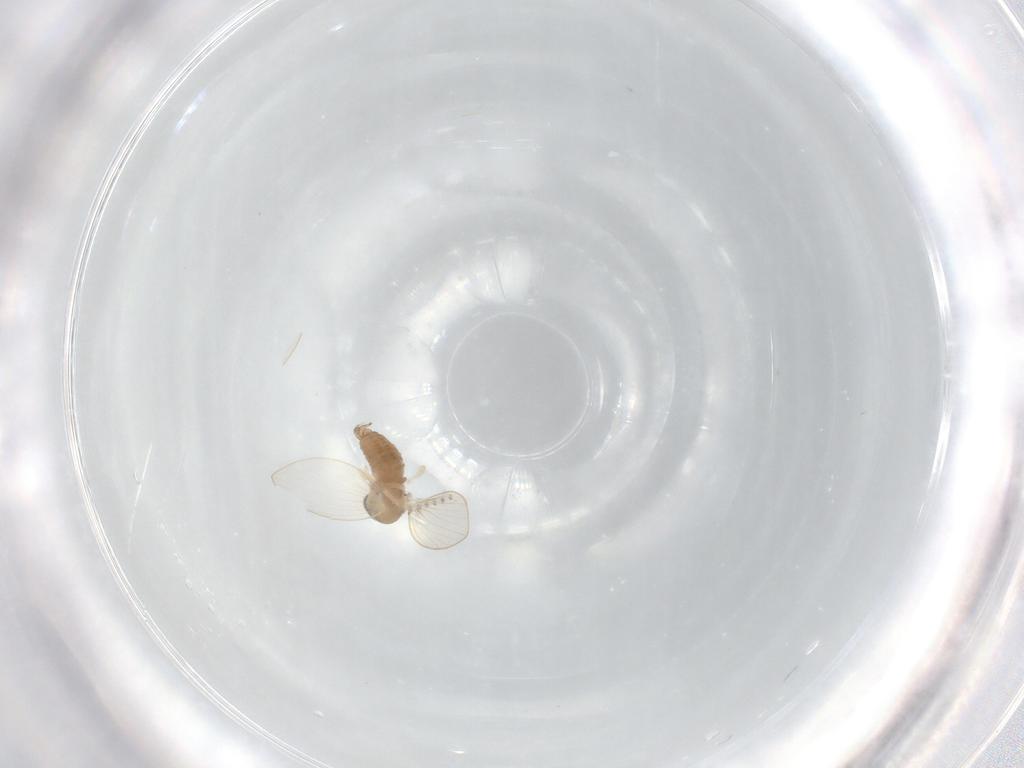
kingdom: Animalia
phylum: Arthropoda
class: Insecta
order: Diptera
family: Psychodidae
